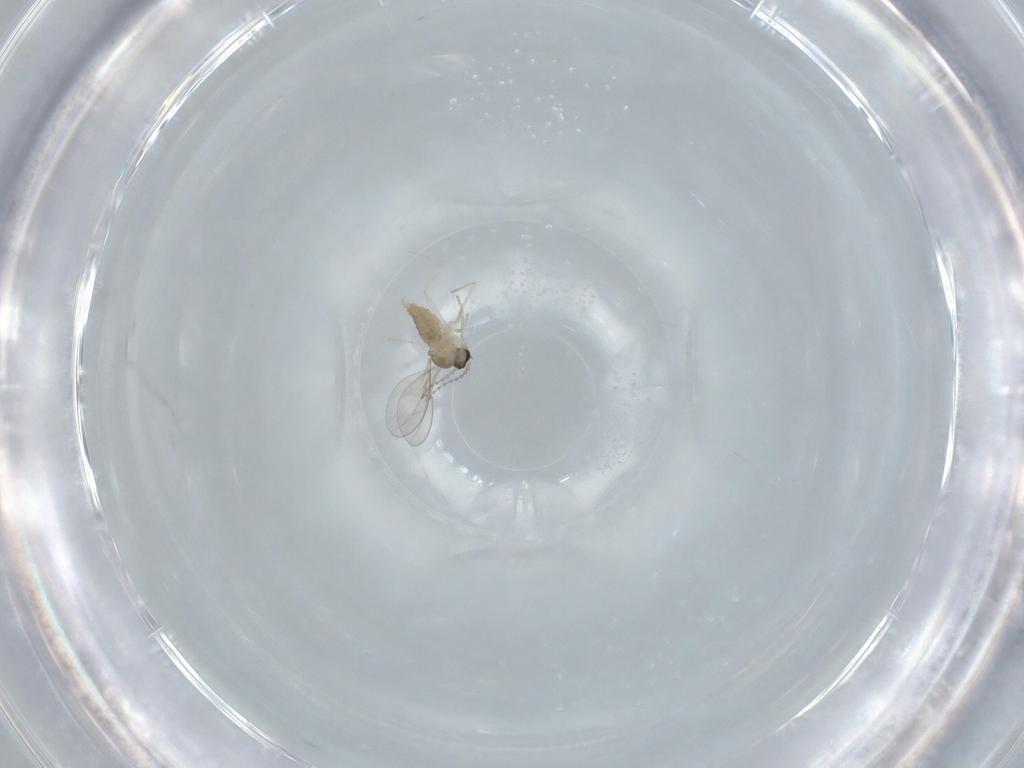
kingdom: Animalia
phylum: Arthropoda
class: Insecta
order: Diptera
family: Cecidomyiidae
